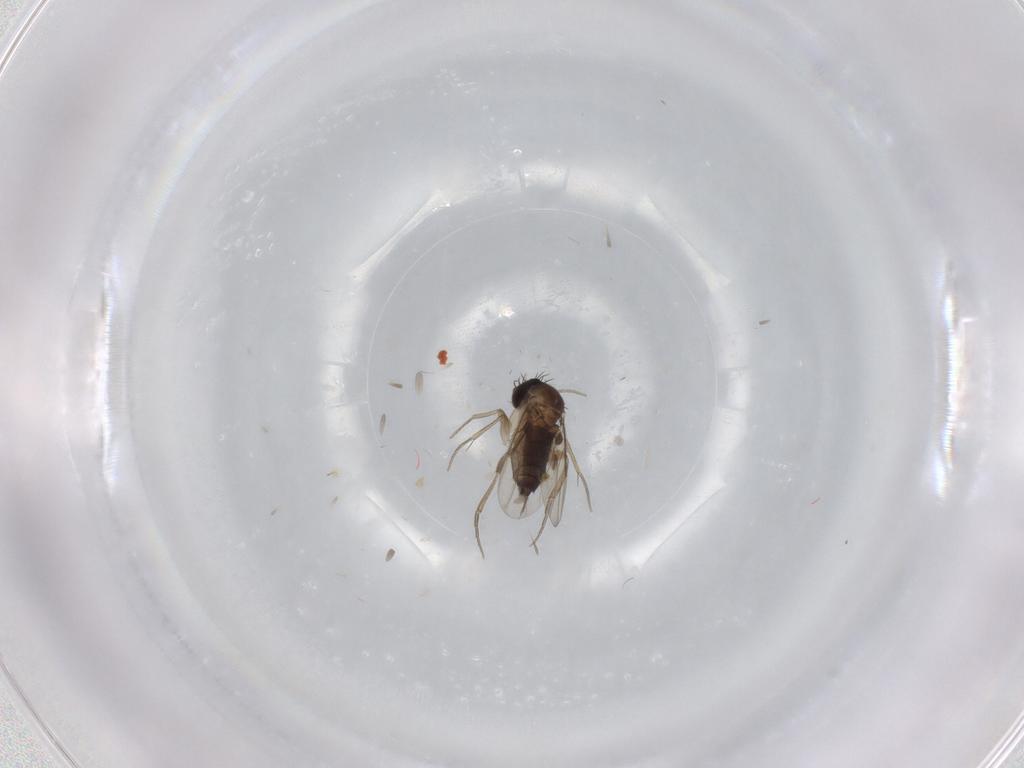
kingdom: Animalia
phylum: Arthropoda
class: Insecta
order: Diptera
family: Phoridae
